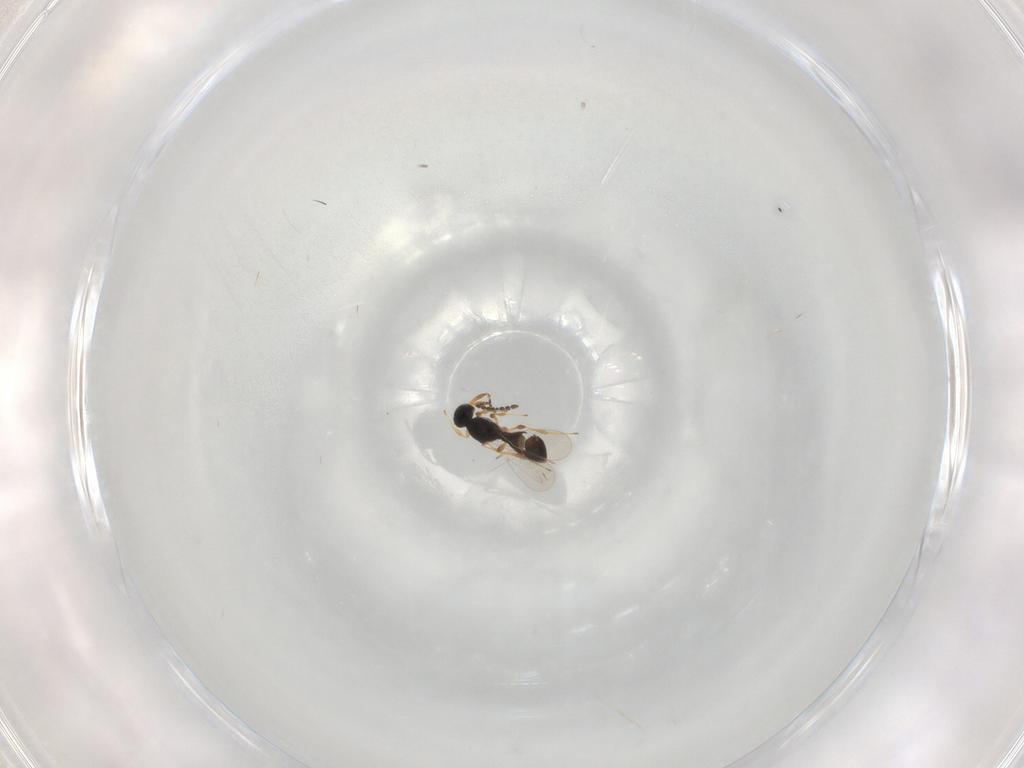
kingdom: Animalia
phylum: Arthropoda
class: Insecta
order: Hymenoptera
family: Platygastridae
